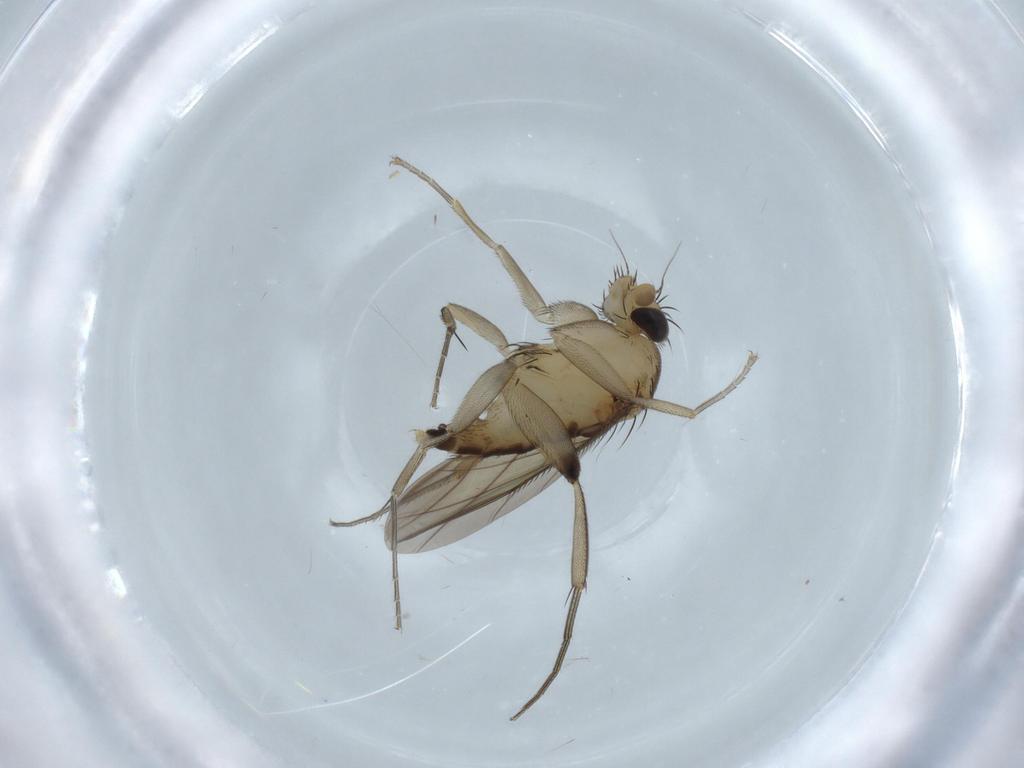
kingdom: Animalia
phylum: Arthropoda
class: Insecta
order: Diptera
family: Phoridae
